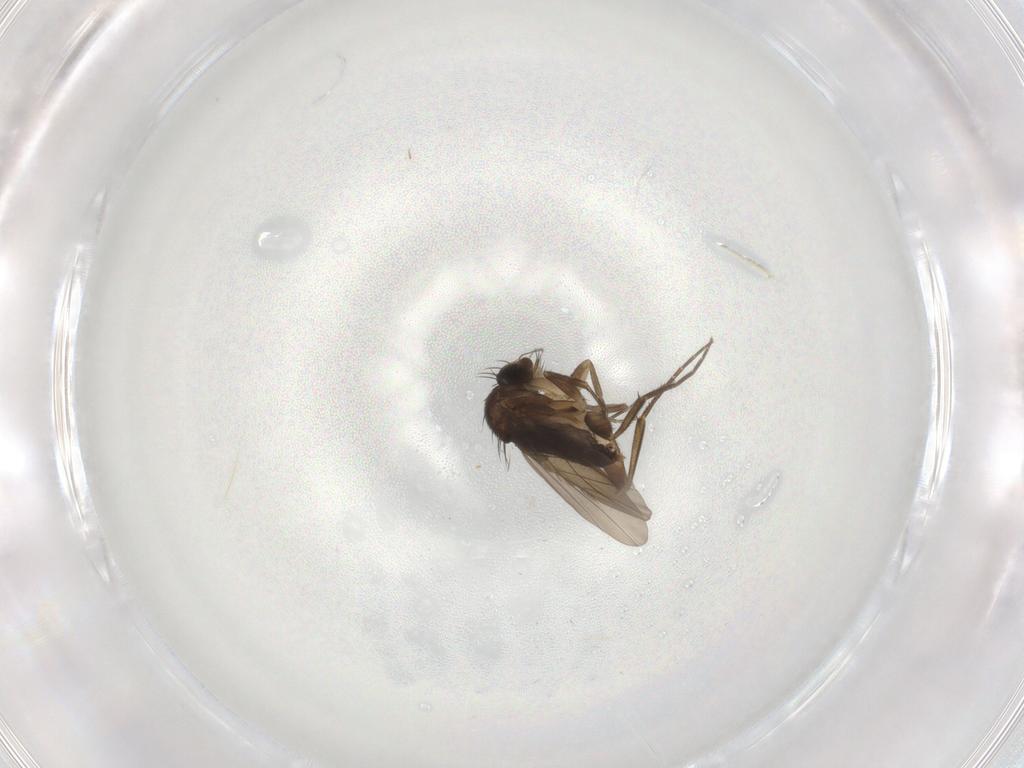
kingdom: Animalia
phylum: Arthropoda
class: Insecta
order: Diptera
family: Phoridae
